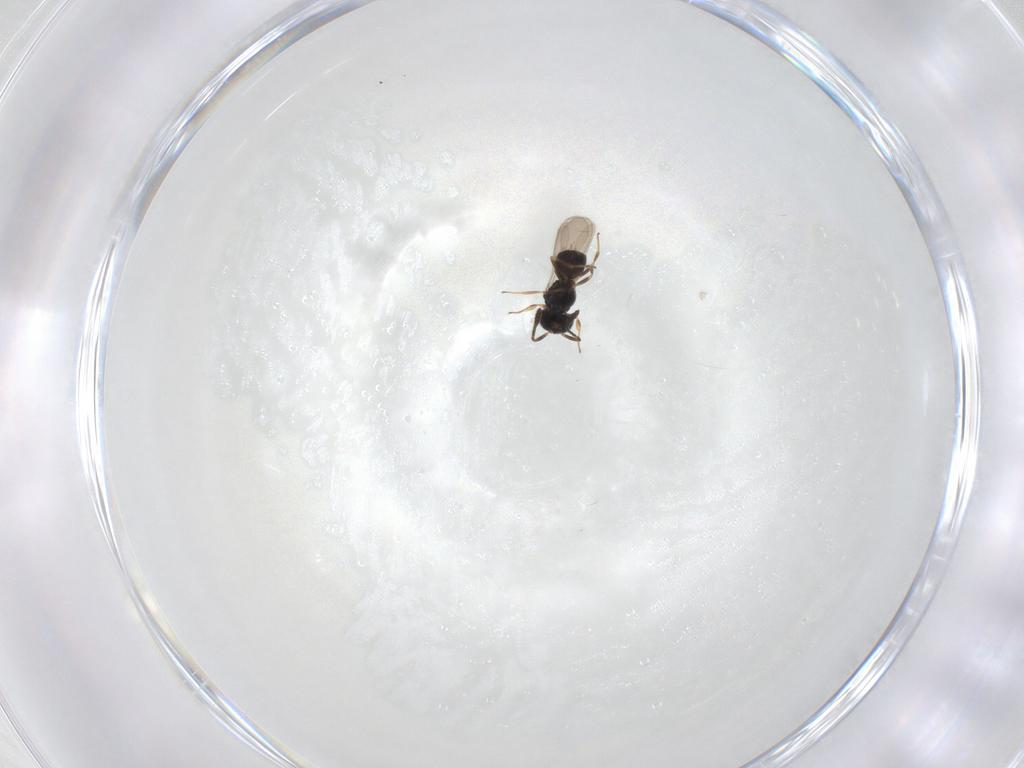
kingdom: Animalia
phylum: Arthropoda
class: Insecta
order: Hymenoptera
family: Scelionidae
